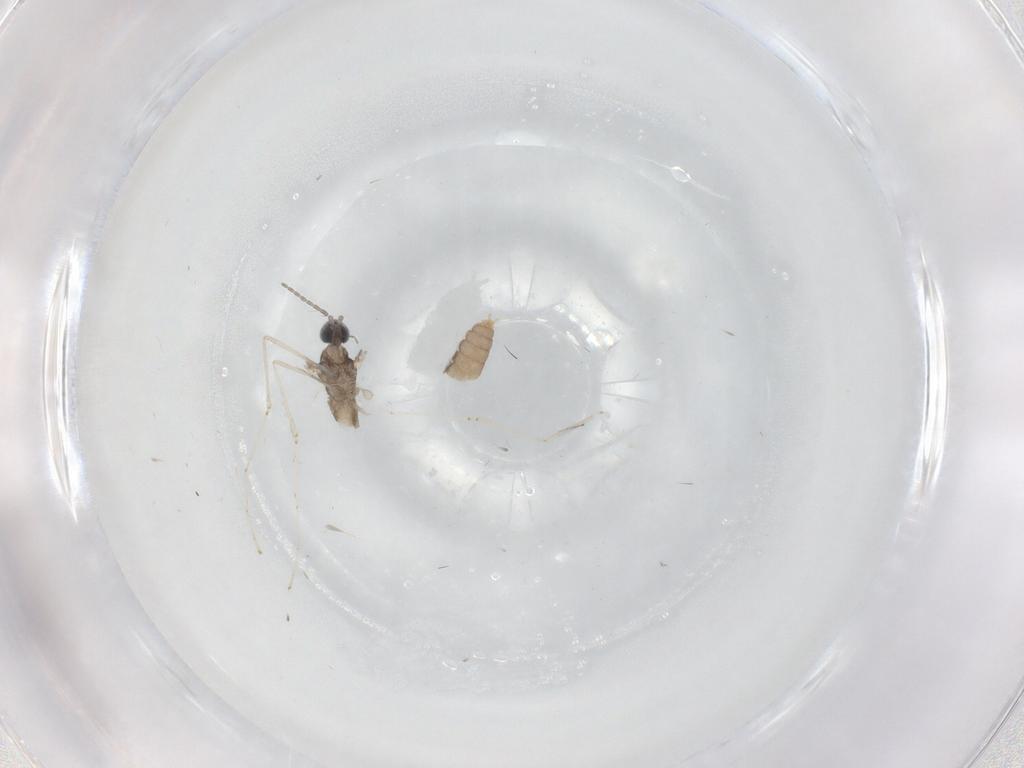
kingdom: Animalia
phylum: Arthropoda
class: Insecta
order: Diptera
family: Cecidomyiidae
